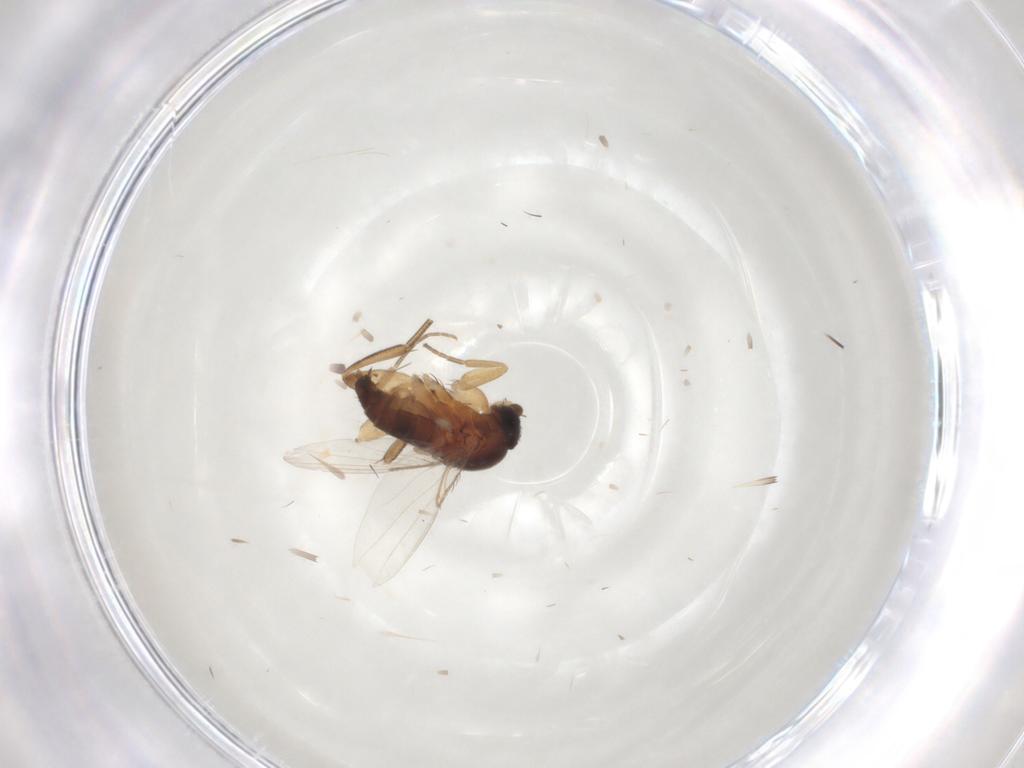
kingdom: Animalia
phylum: Arthropoda
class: Insecta
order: Diptera
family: Phoridae
